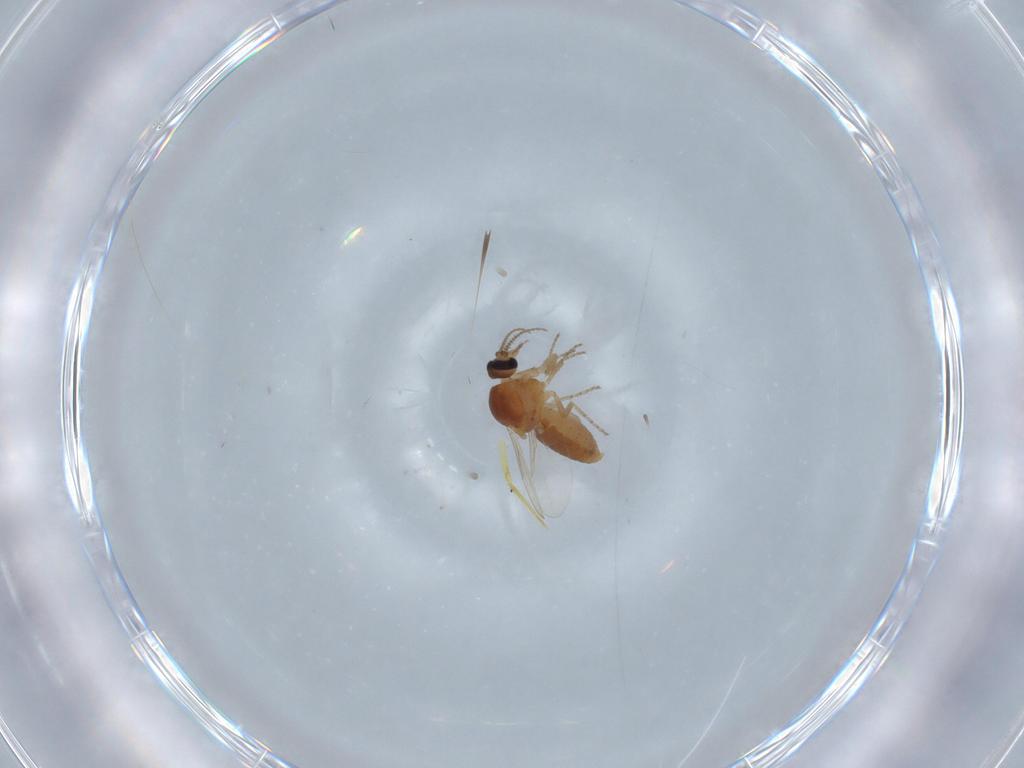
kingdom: Animalia
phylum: Arthropoda
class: Insecta
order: Diptera
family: Ceratopogonidae
